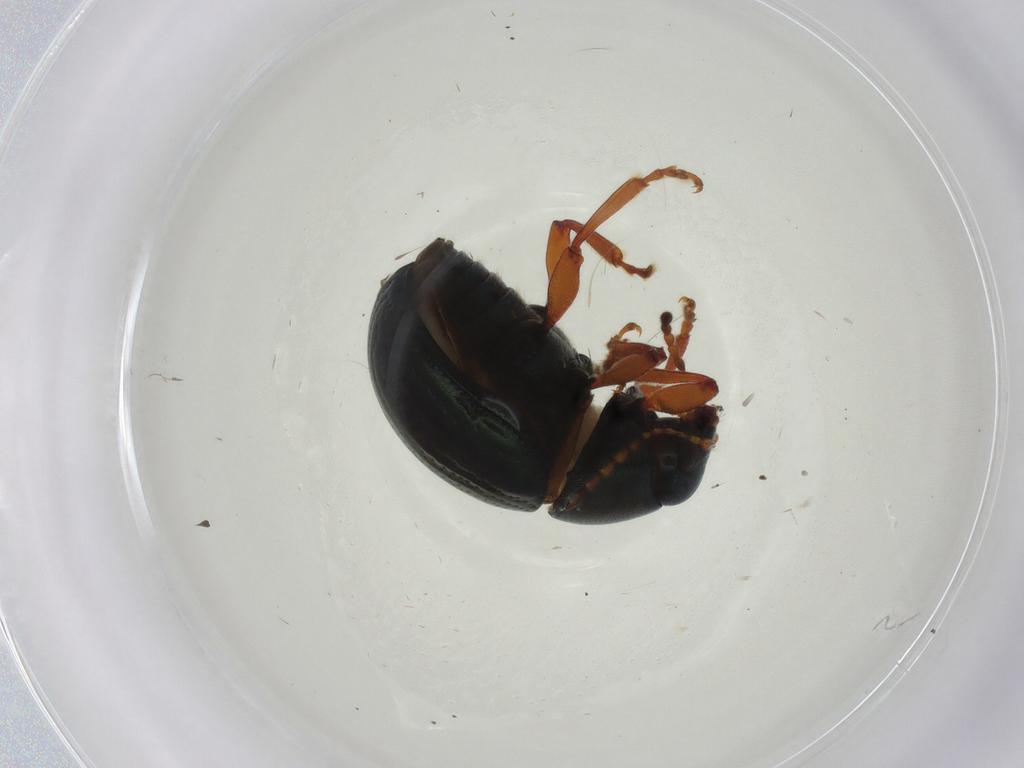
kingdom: Animalia
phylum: Arthropoda
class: Insecta
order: Coleoptera
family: Chrysomelidae
